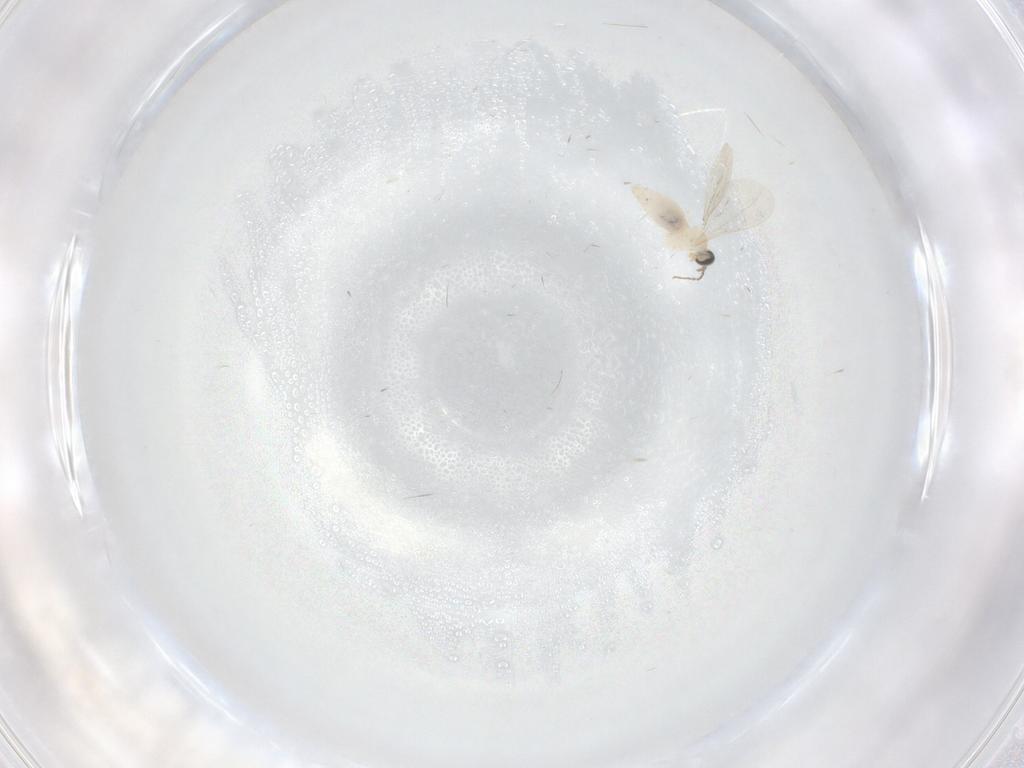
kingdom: Animalia
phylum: Arthropoda
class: Insecta
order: Diptera
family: Cecidomyiidae
